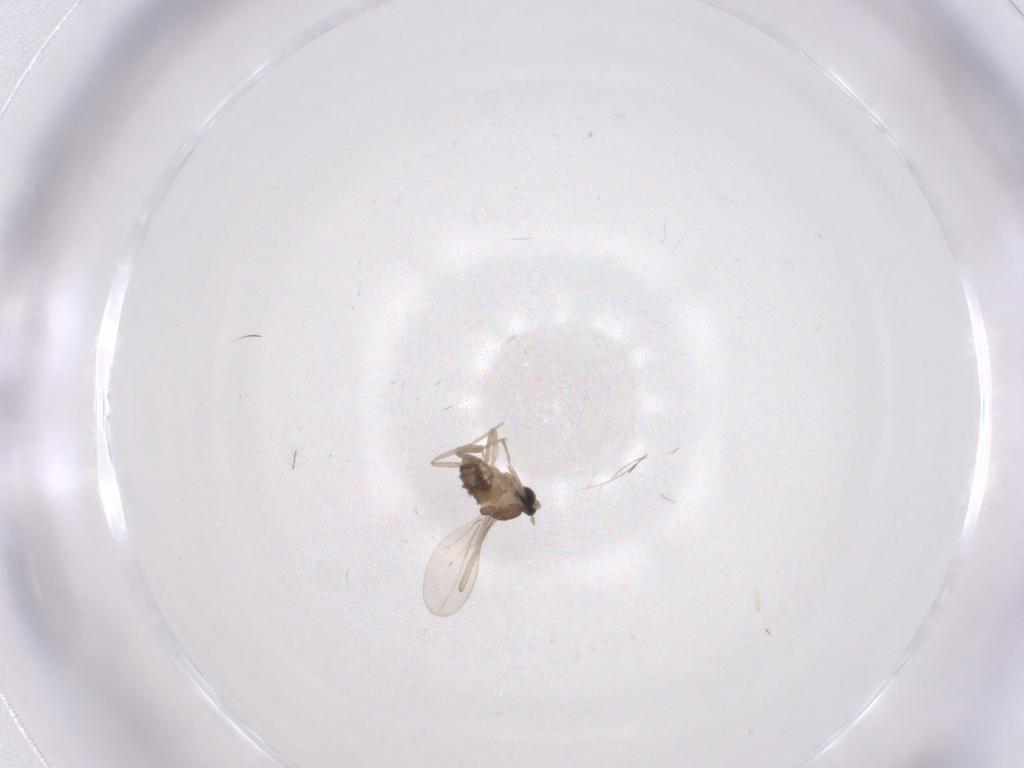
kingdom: Animalia
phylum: Arthropoda
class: Insecta
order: Diptera
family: Cecidomyiidae
